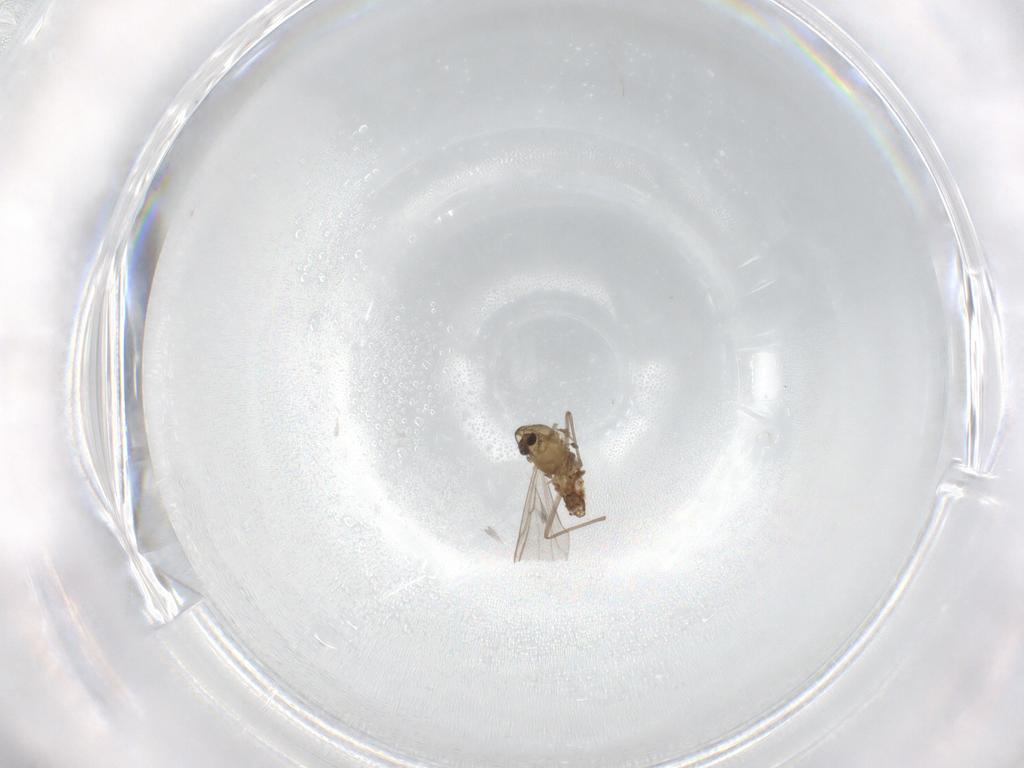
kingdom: Animalia
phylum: Arthropoda
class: Insecta
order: Diptera
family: Chironomidae
